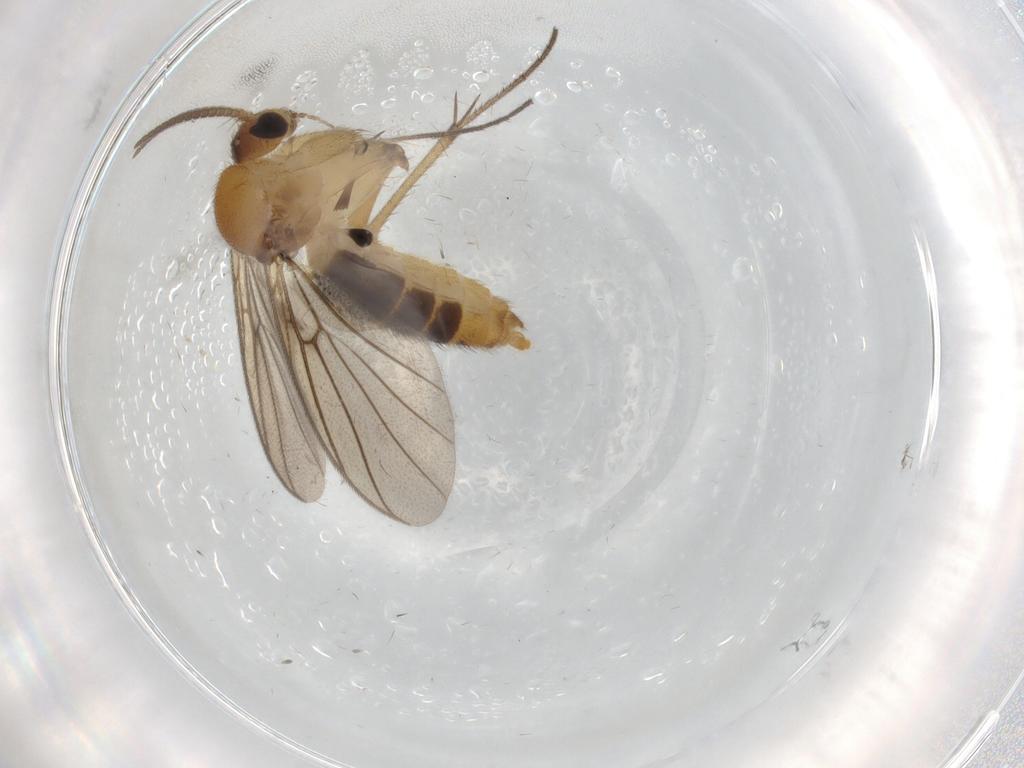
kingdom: Animalia
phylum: Arthropoda
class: Insecta
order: Diptera
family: Mycetophilidae
